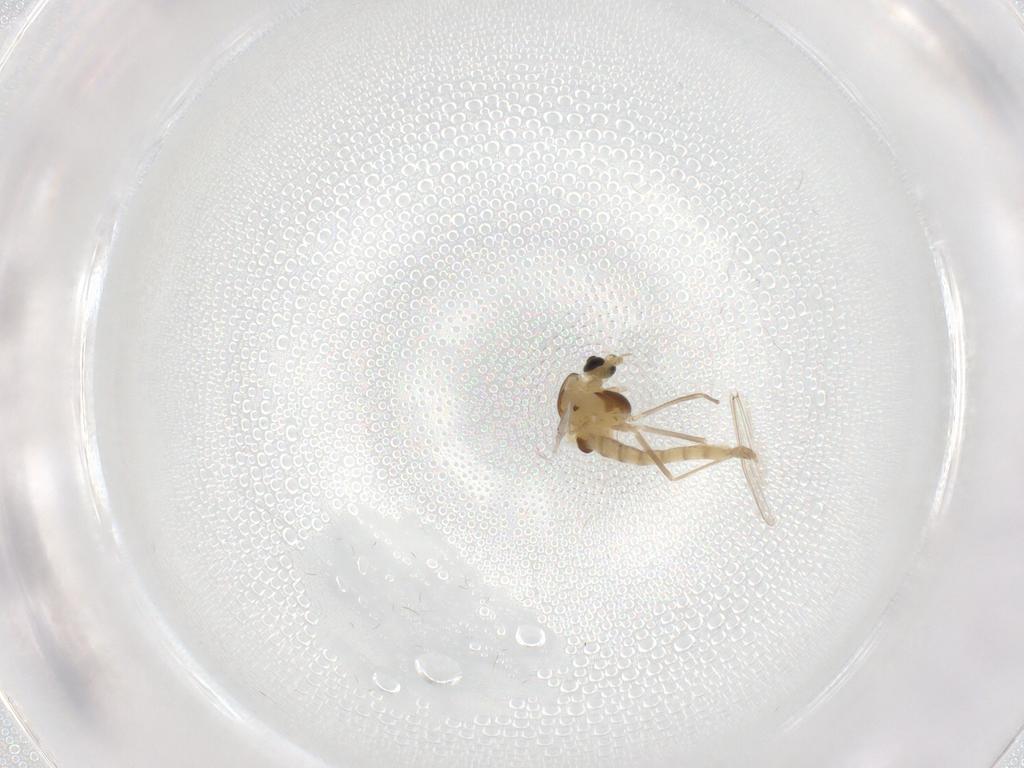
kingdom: Animalia
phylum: Arthropoda
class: Insecta
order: Diptera
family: Chironomidae
